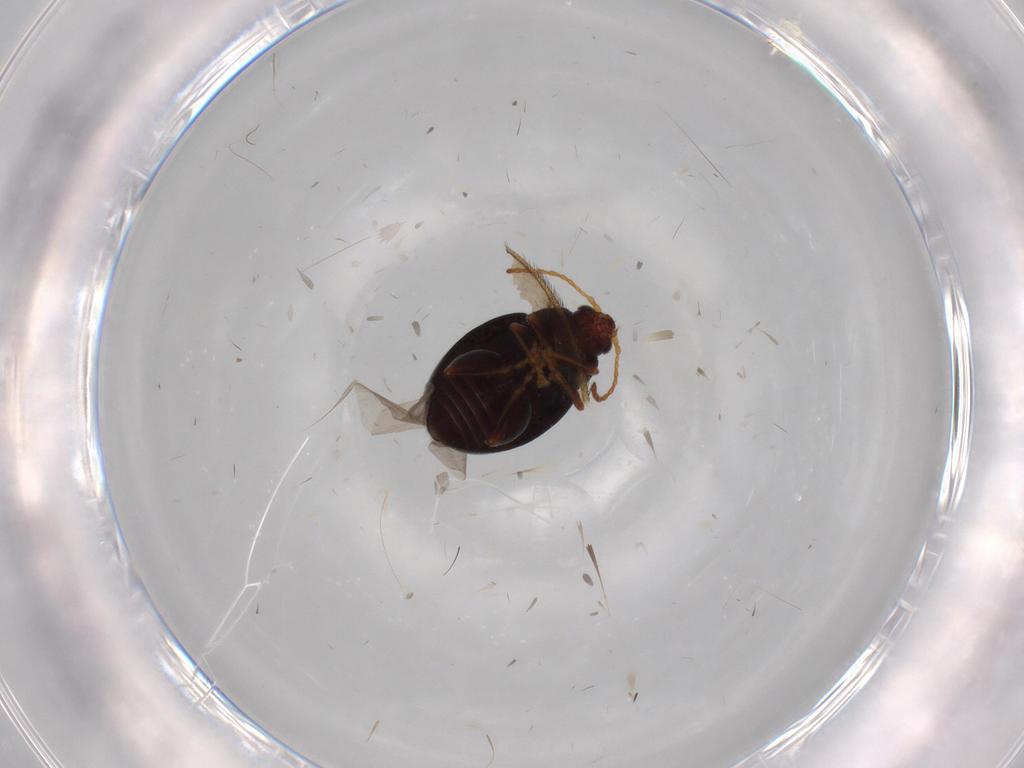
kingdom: Animalia
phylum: Arthropoda
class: Insecta
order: Coleoptera
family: Chrysomelidae
